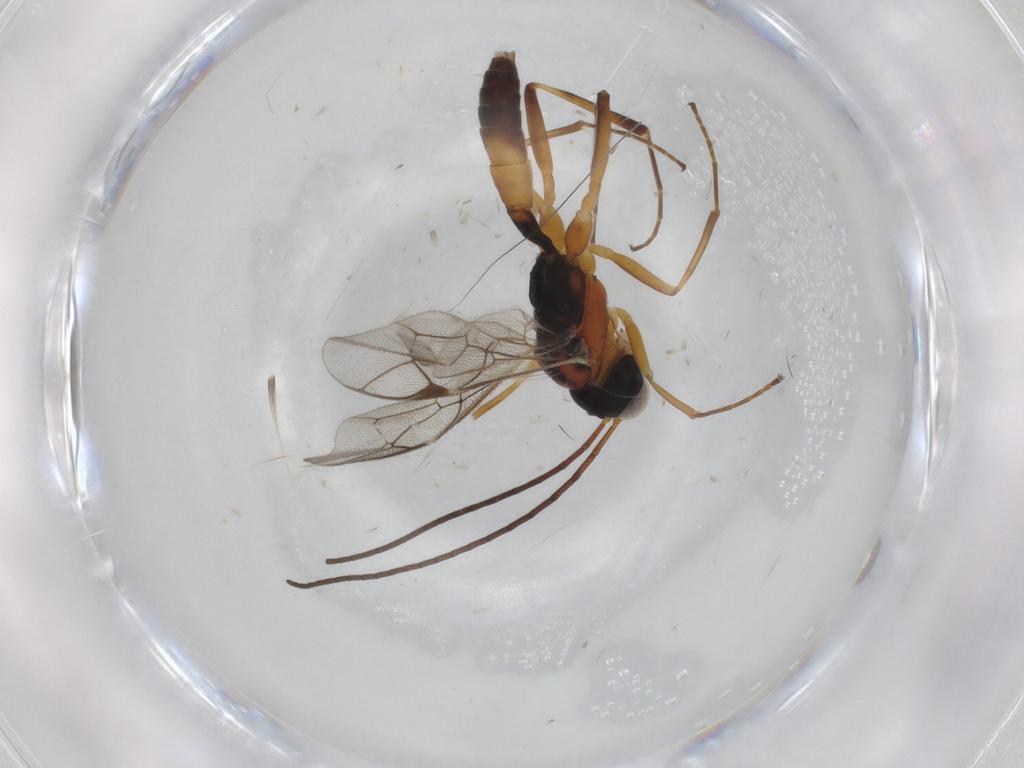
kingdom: Animalia
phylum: Arthropoda
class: Insecta
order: Hymenoptera
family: Ichneumonidae
